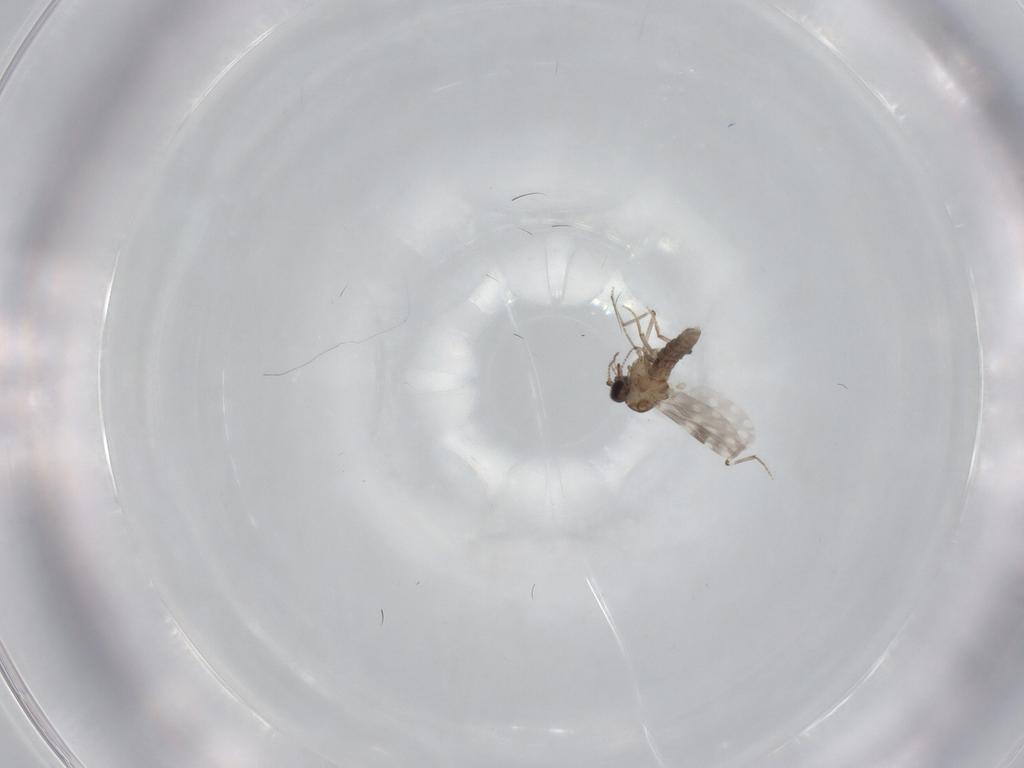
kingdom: Animalia
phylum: Arthropoda
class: Insecta
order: Diptera
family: Ceratopogonidae
